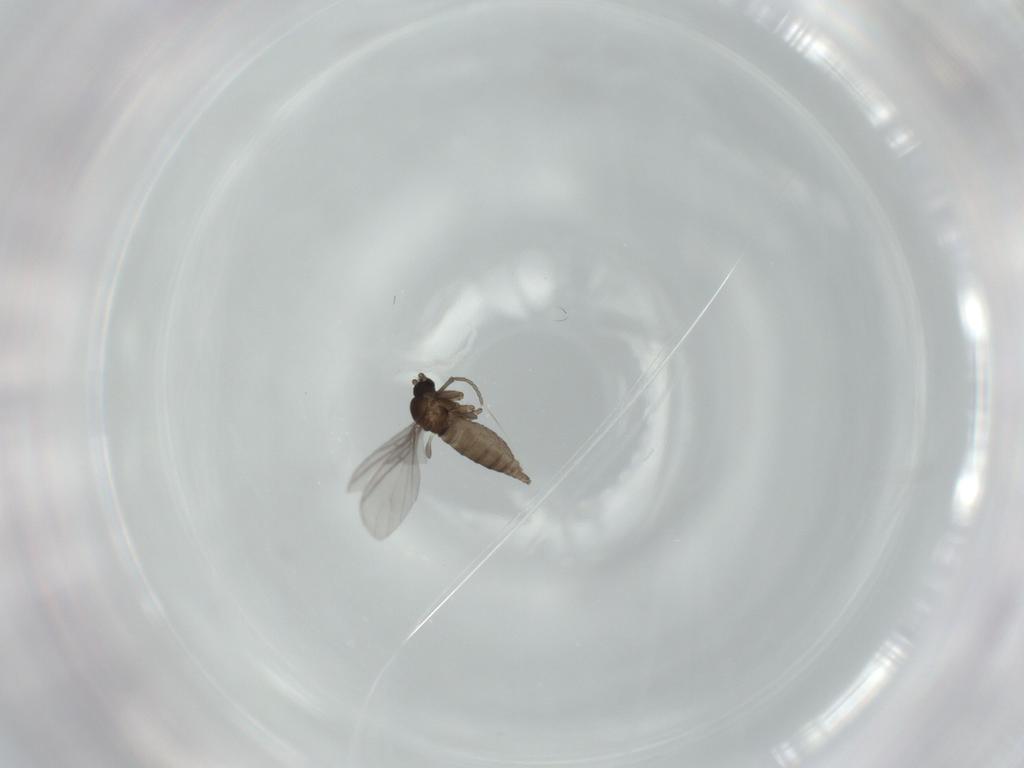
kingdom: Animalia
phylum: Arthropoda
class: Insecta
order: Diptera
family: Sciaridae
